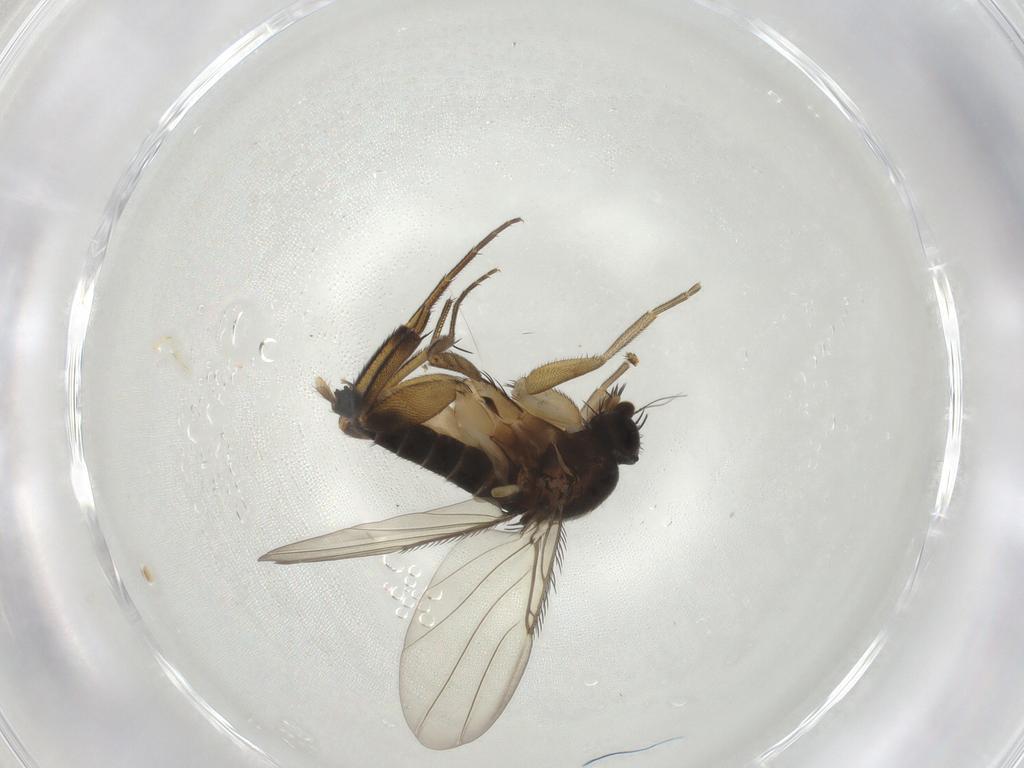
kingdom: Animalia
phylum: Arthropoda
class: Insecta
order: Diptera
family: Phoridae
